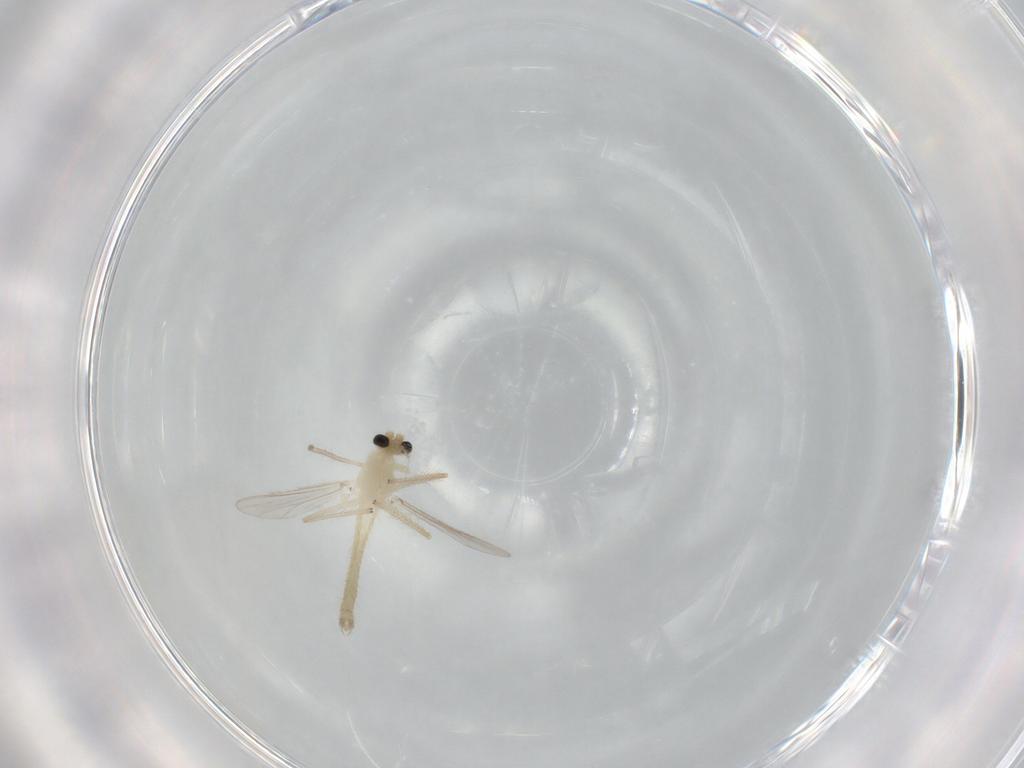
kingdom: Animalia
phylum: Arthropoda
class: Insecta
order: Diptera
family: Chironomidae
